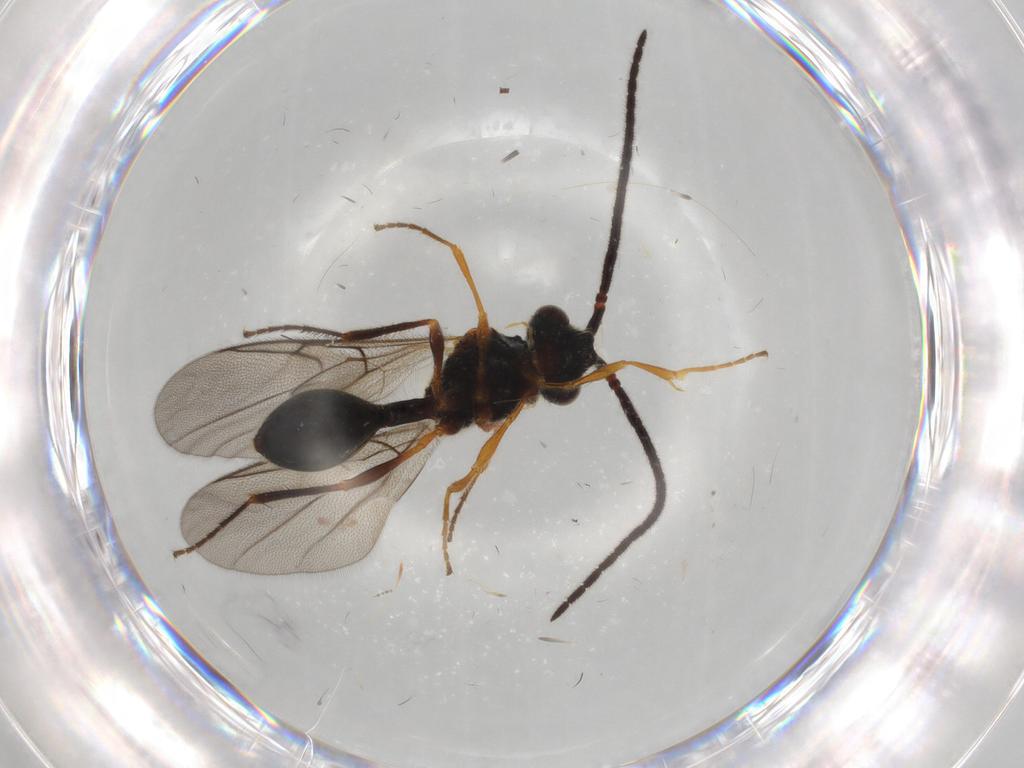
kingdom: Animalia
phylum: Arthropoda
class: Insecta
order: Hymenoptera
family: Diapriidae
